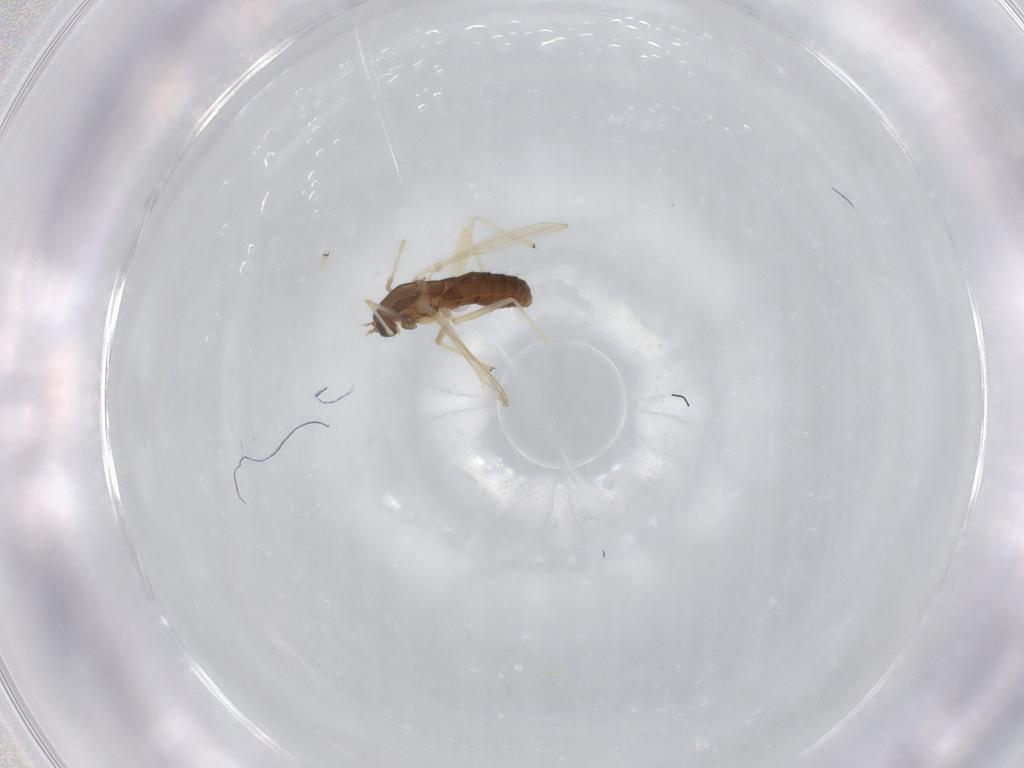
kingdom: Animalia
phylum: Arthropoda
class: Insecta
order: Diptera
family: Chironomidae
